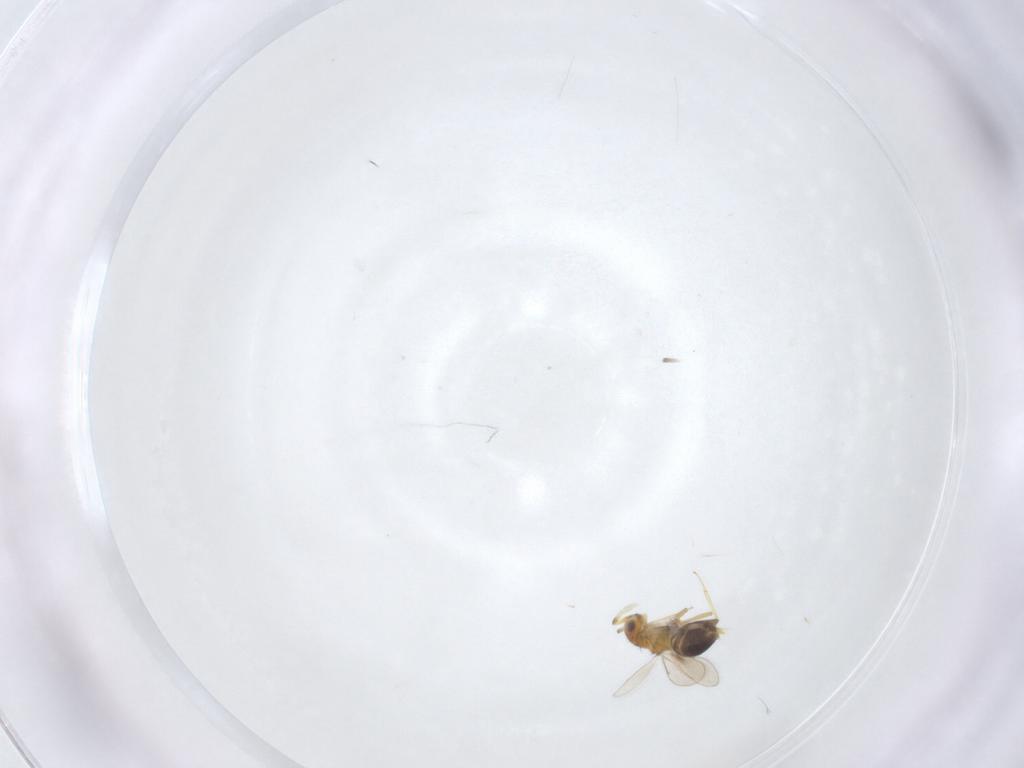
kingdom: Animalia
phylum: Arthropoda
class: Insecta
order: Hymenoptera
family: Trichogrammatidae
